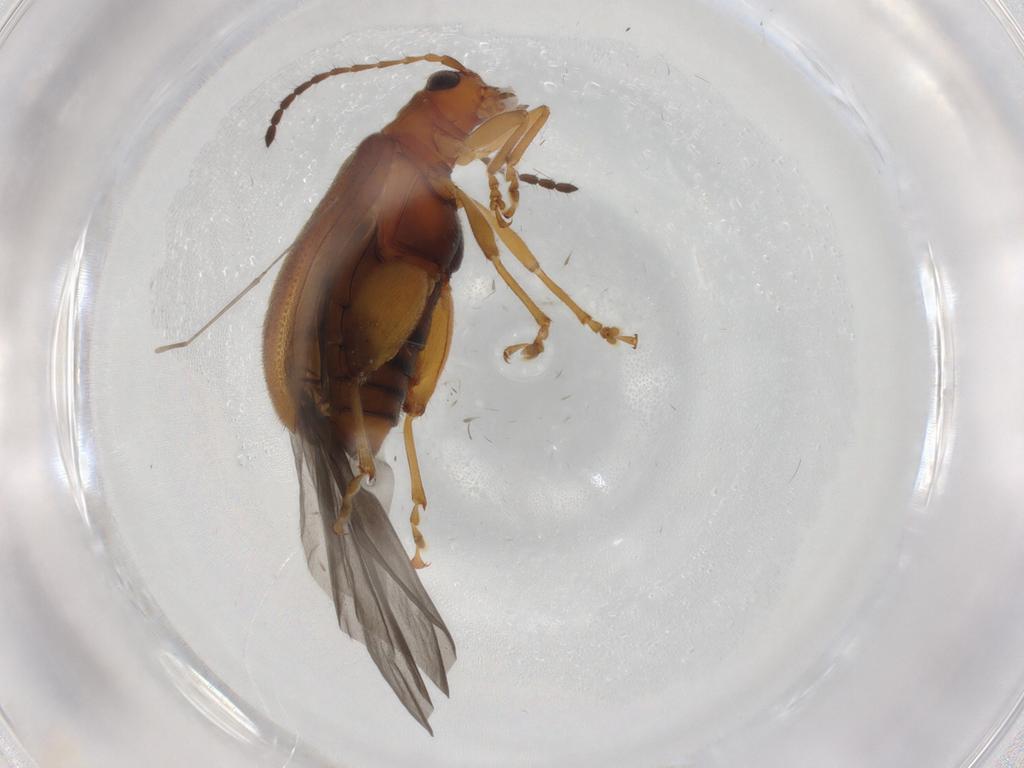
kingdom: Animalia
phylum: Arthropoda
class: Insecta
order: Coleoptera
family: Chrysomelidae
